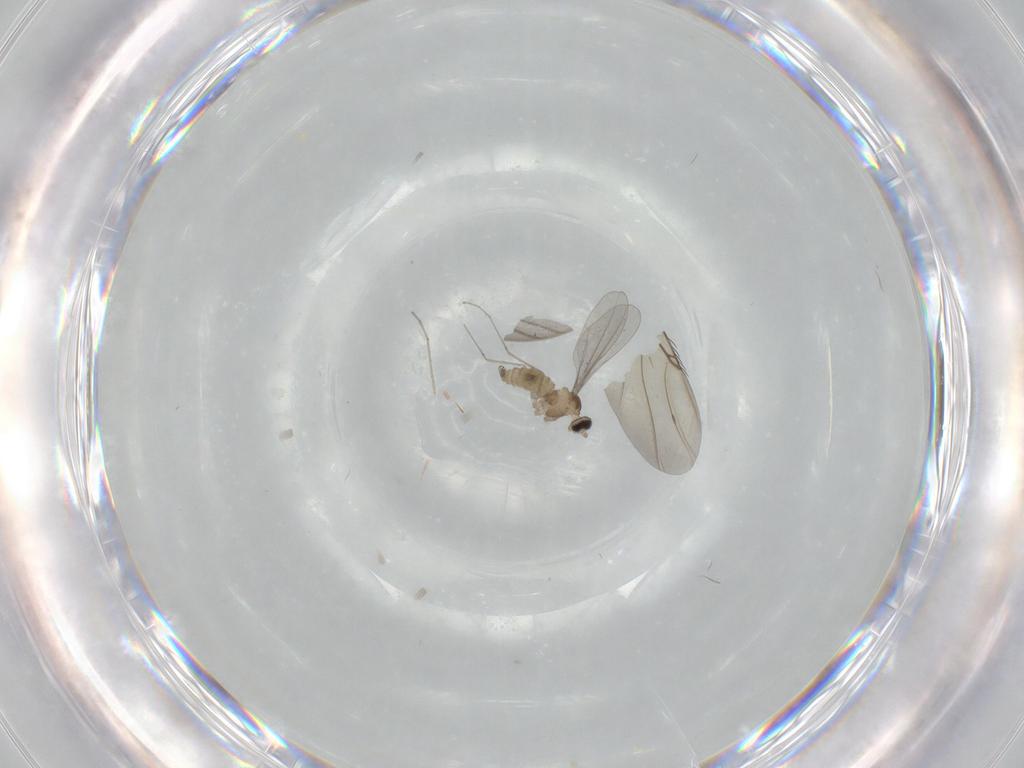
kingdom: Animalia
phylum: Arthropoda
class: Insecta
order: Diptera
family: Cecidomyiidae
